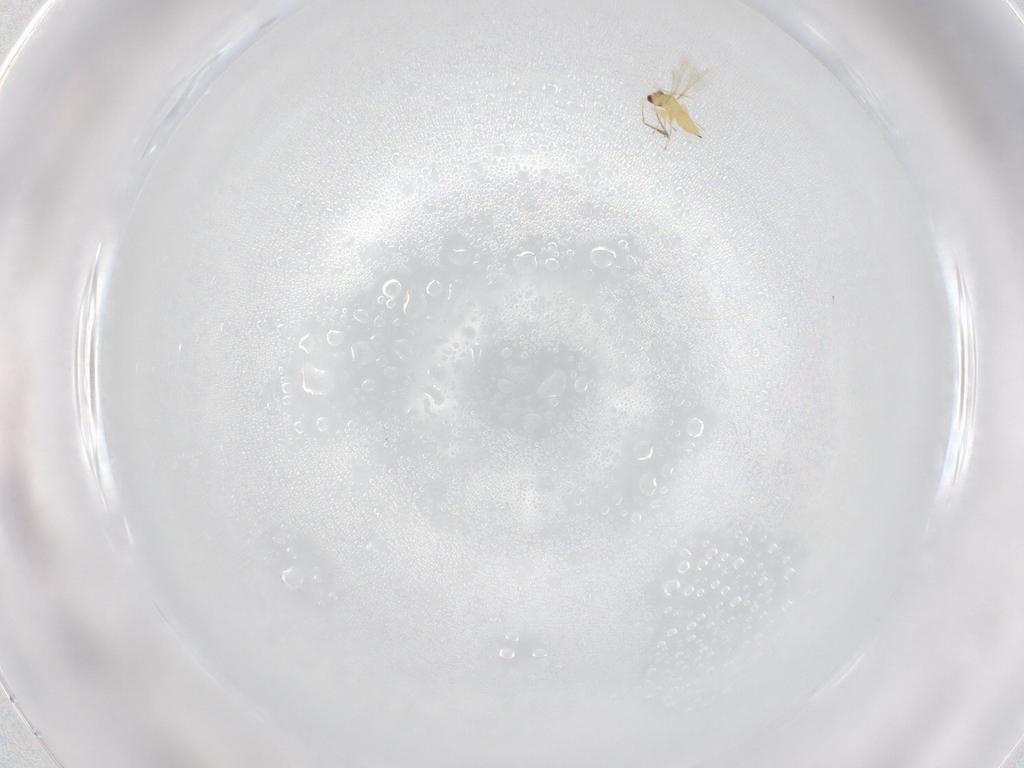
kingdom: Animalia
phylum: Arthropoda
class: Insecta
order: Hymenoptera
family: Mymaridae
